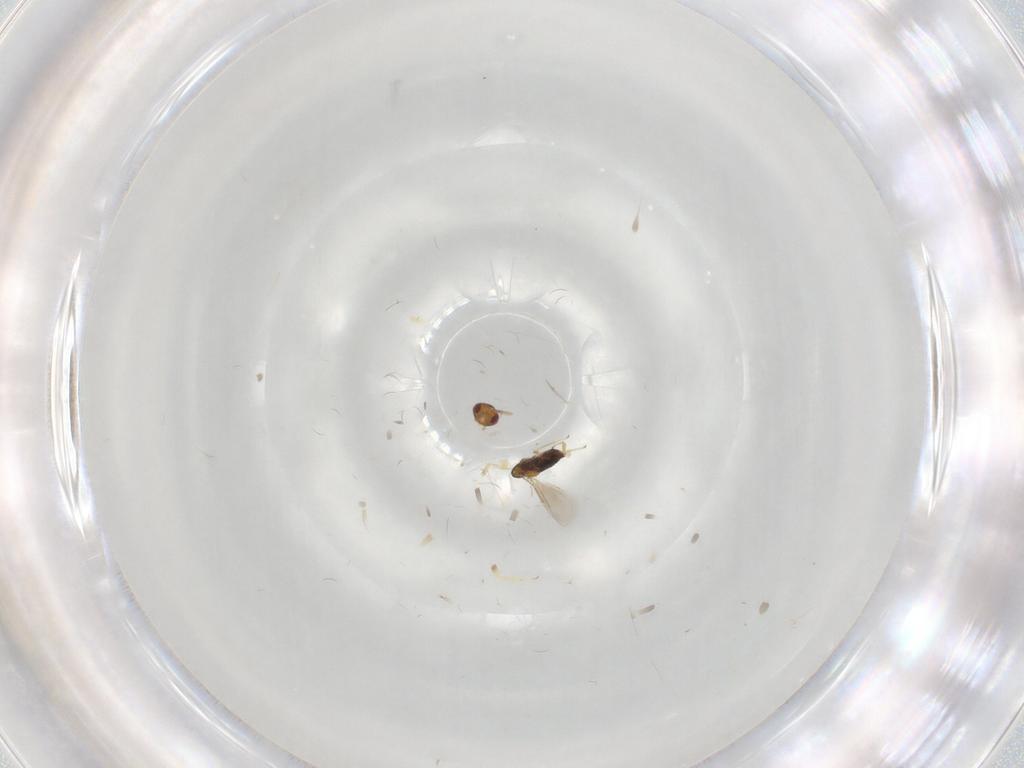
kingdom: Animalia
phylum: Arthropoda
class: Insecta
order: Hymenoptera
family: Aphelinidae
